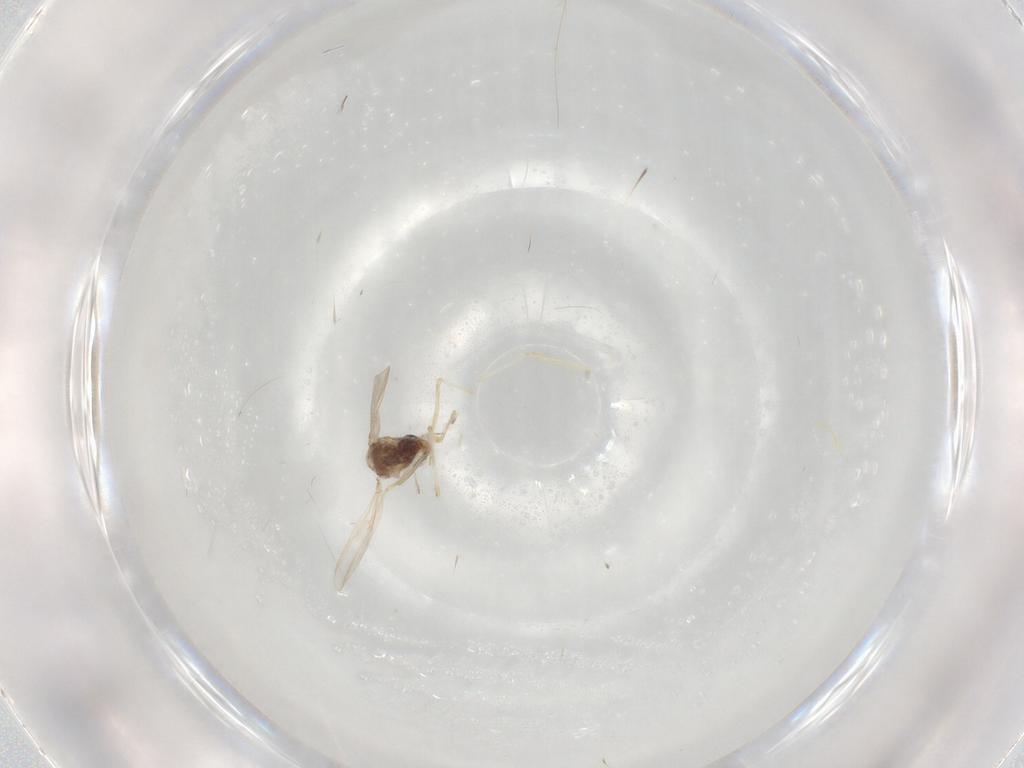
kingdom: Animalia
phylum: Arthropoda
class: Insecta
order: Diptera
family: Chironomidae
